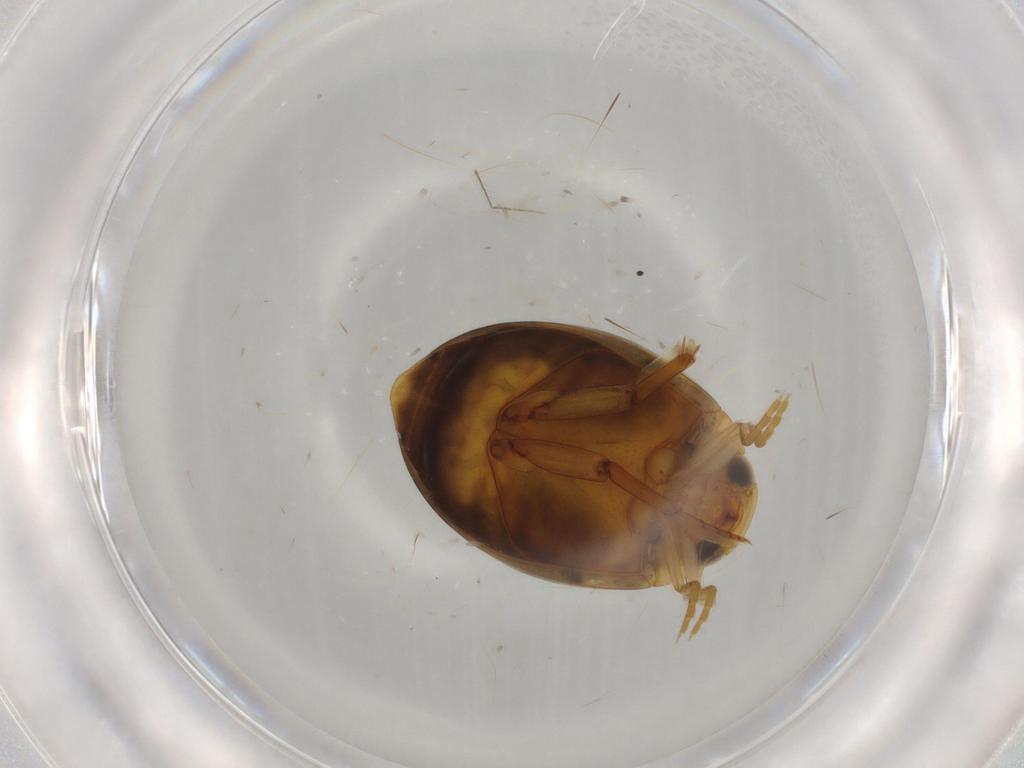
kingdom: Animalia
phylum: Arthropoda
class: Insecta
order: Coleoptera
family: Dytiscidae
